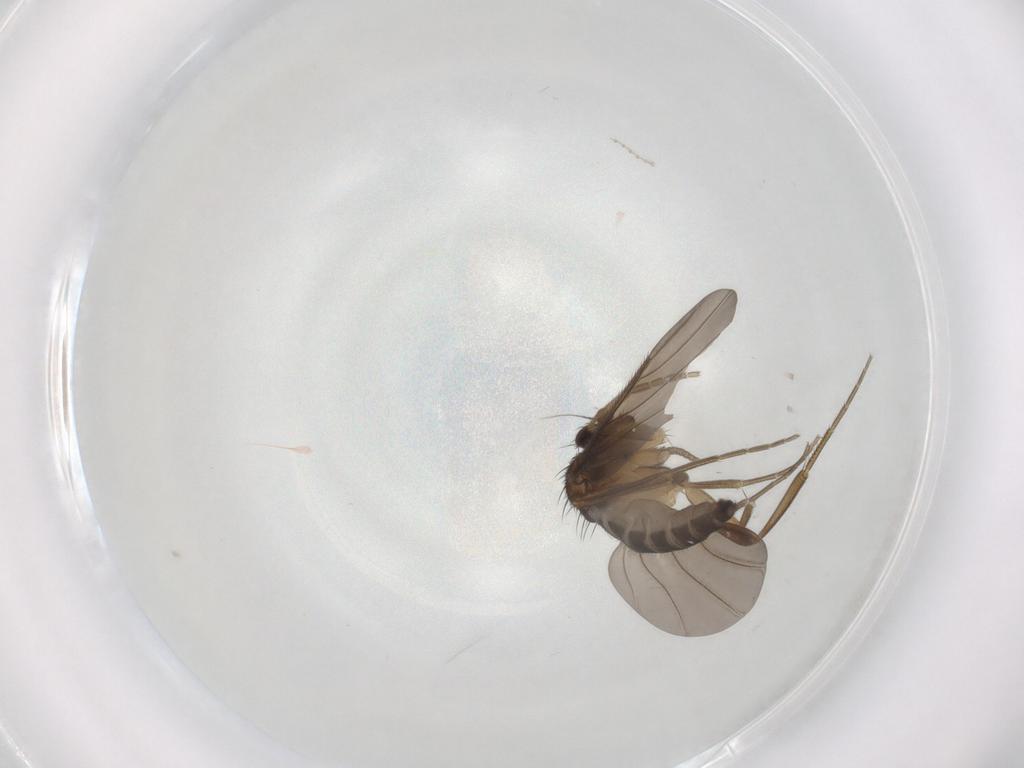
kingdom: Animalia
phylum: Arthropoda
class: Insecta
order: Diptera
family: Phoridae
